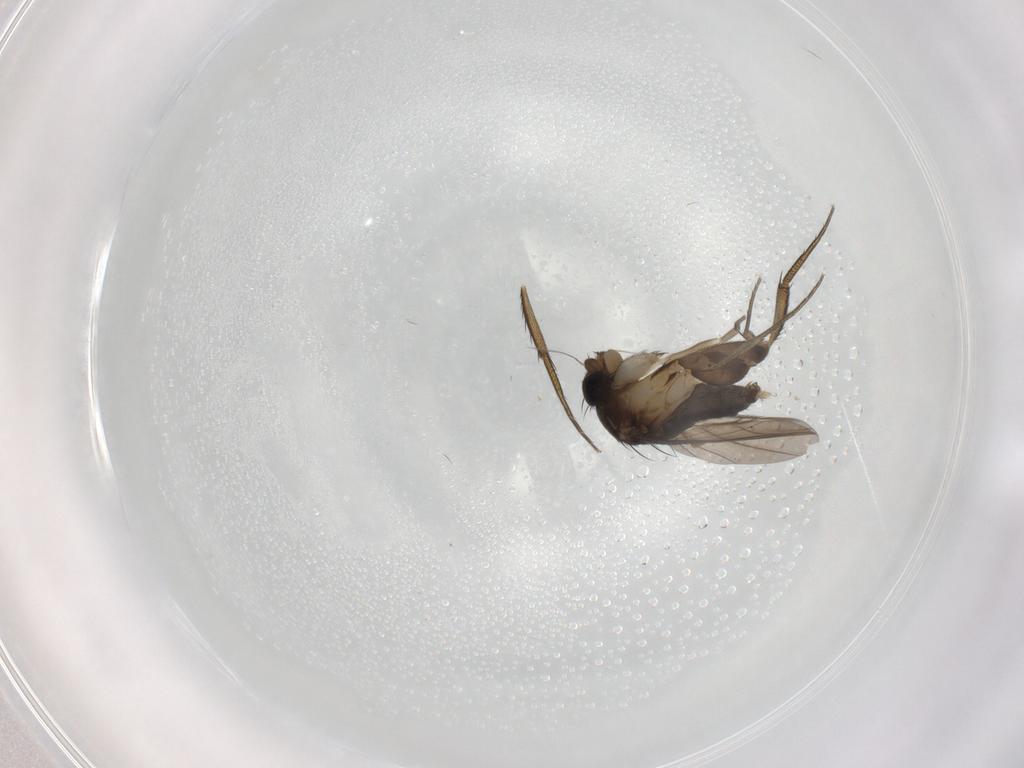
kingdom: Animalia
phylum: Arthropoda
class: Insecta
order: Diptera
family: Phoridae
